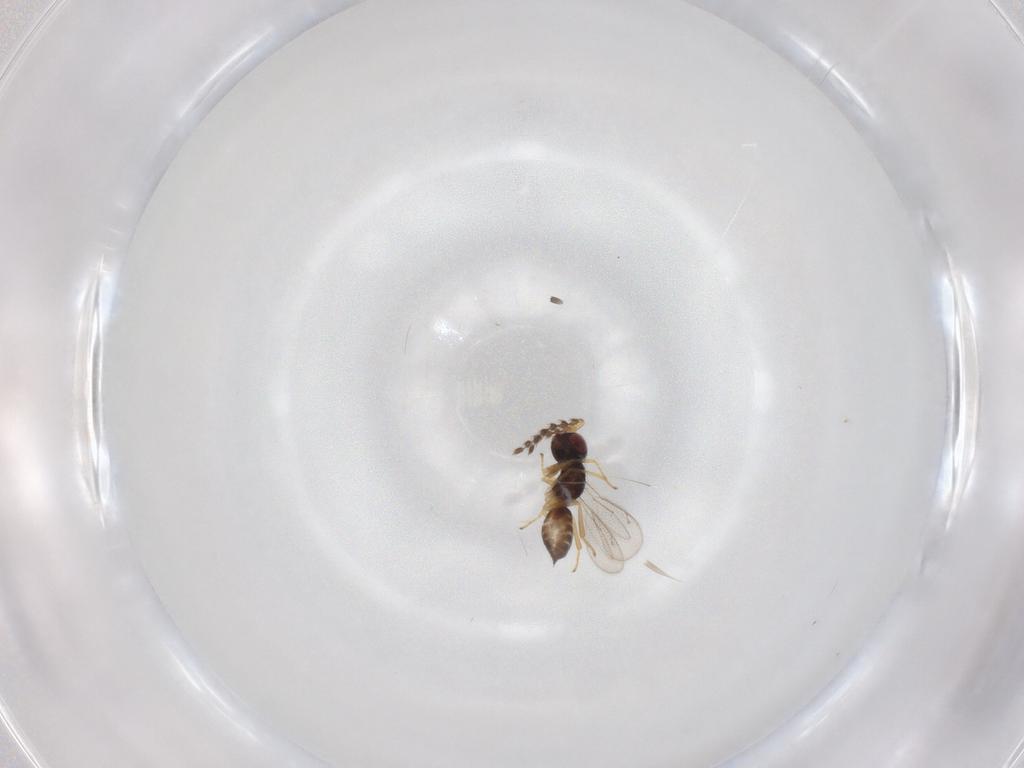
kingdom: Animalia
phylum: Arthropoda
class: Insecta
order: Hymenoptera
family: Eulophidae
